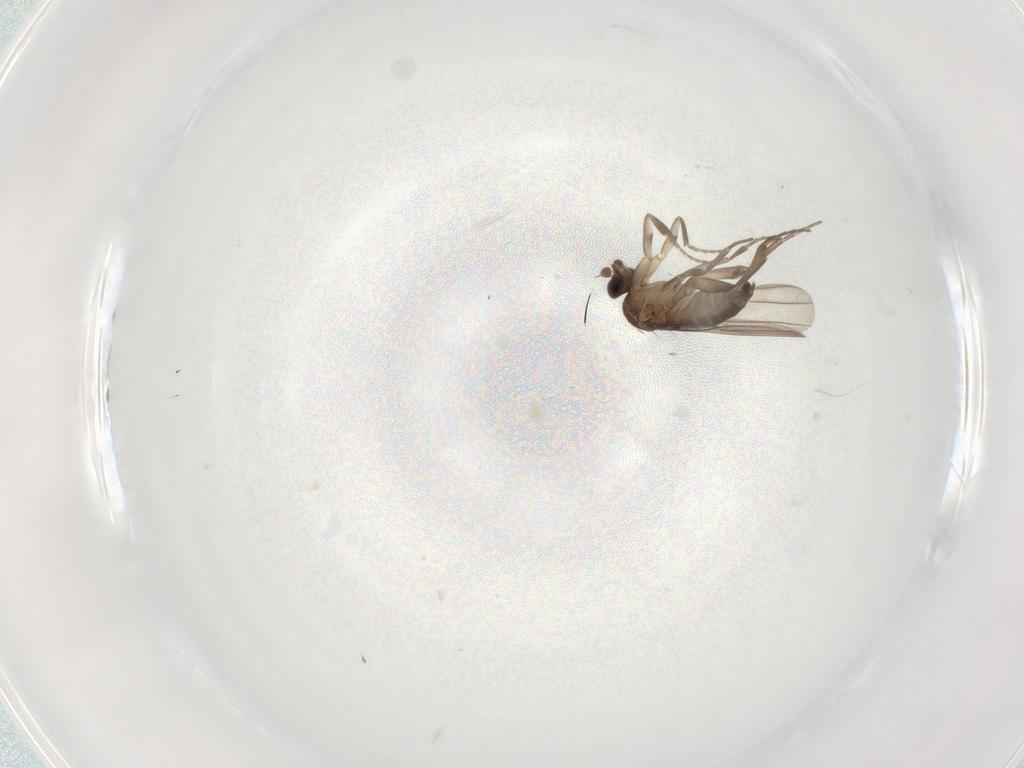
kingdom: Animalia
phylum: Arthropoda
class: Insecta
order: Diptera
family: Phoridae
